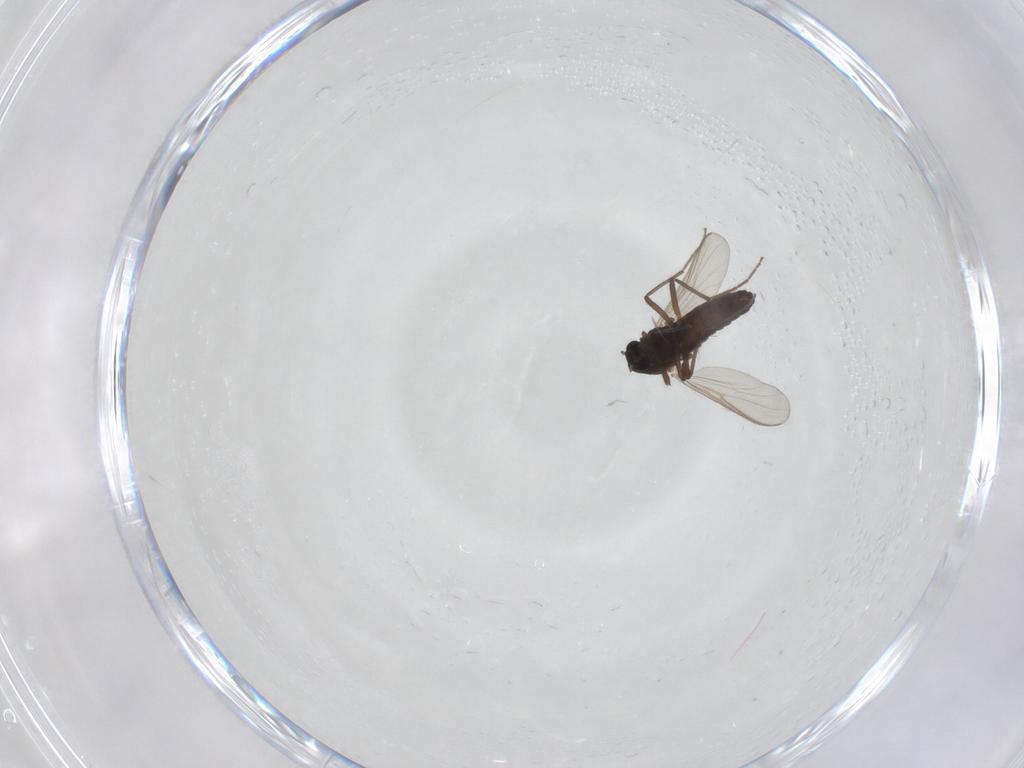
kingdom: Animalia
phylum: Arthropoda
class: Insecta
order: Diptera
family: Chironomidae
